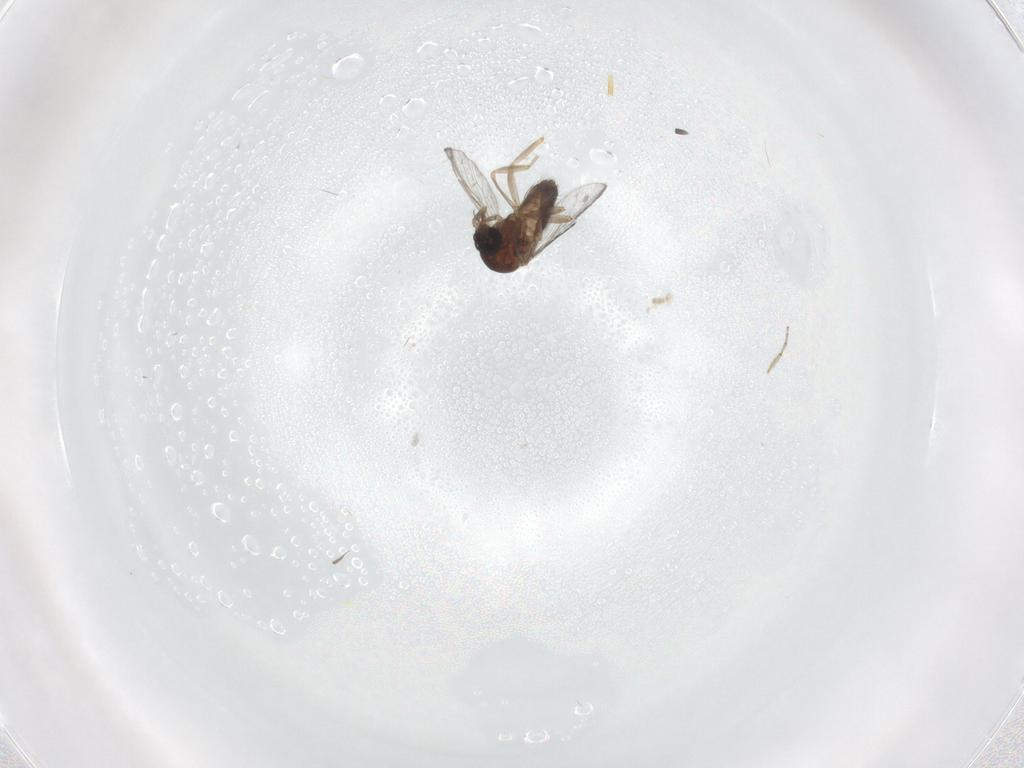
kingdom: Animalia
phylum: Arthropoda
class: Insecta
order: Diptera
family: Ceratopogonidae
